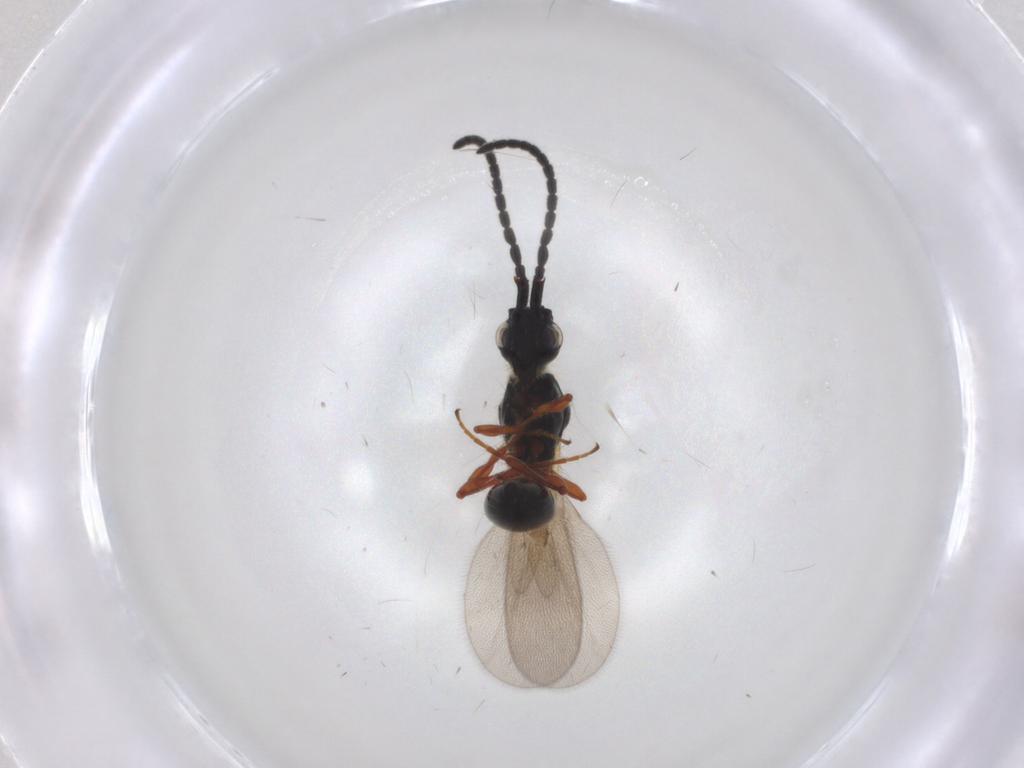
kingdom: Animalia
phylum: Arthropoda
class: Insecta
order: Hymenoptera
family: Diapriidae
